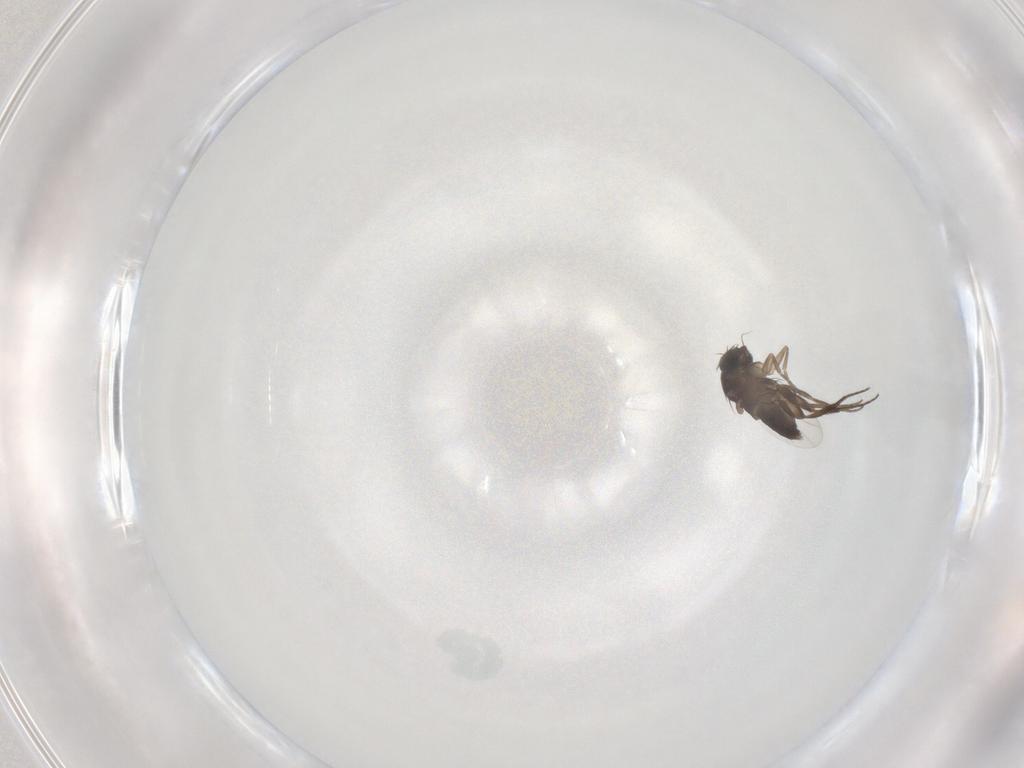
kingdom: Animalia
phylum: Arthropoda
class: Insecta
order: Diptera
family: Phoridae
